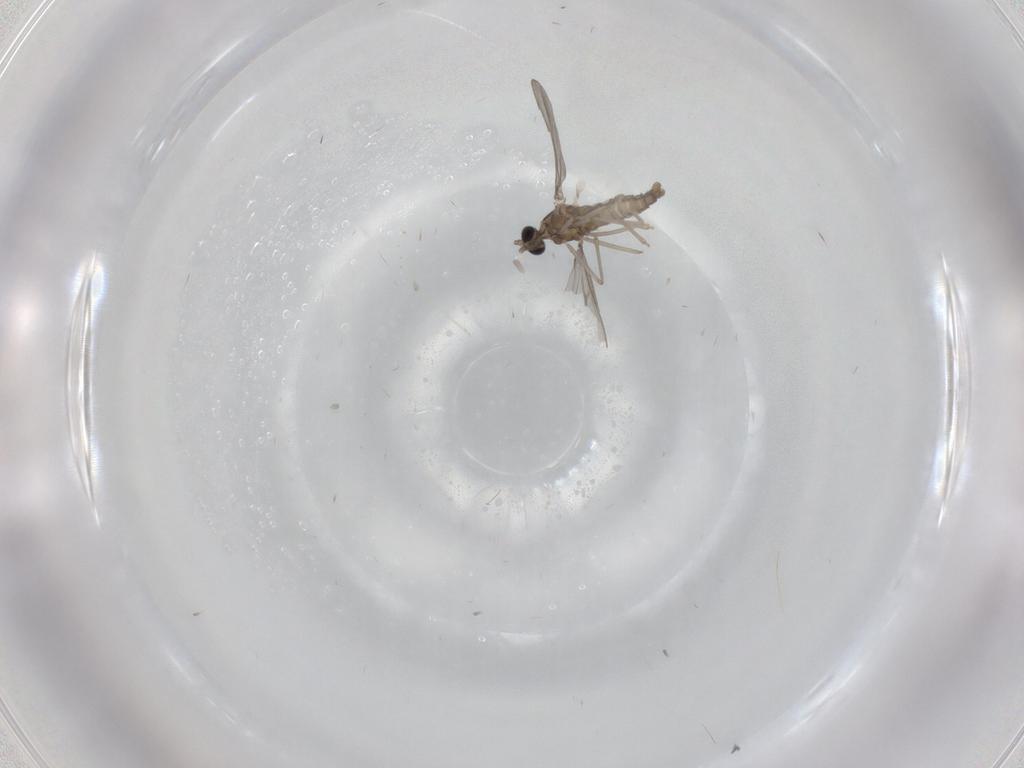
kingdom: Animalia
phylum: Arthropoda
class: Insecta
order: Diptera
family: Cecidomyiidae
